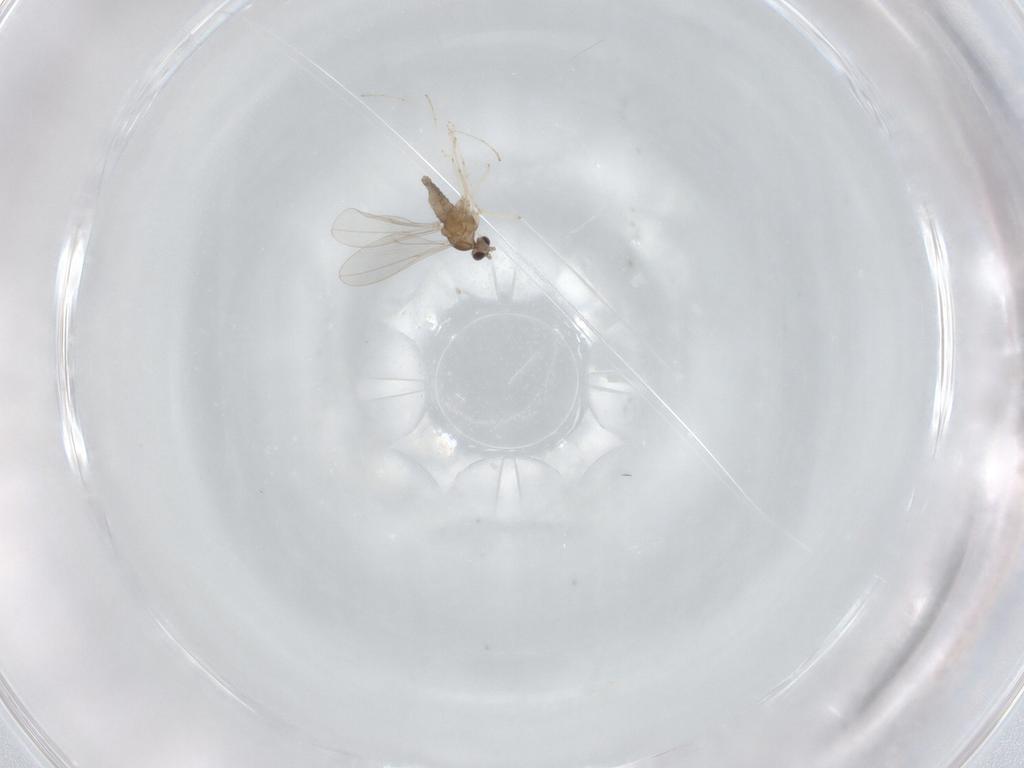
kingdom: Animalia
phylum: Arthropoda
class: Insecta
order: Diptera
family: Cecidomyiidae
